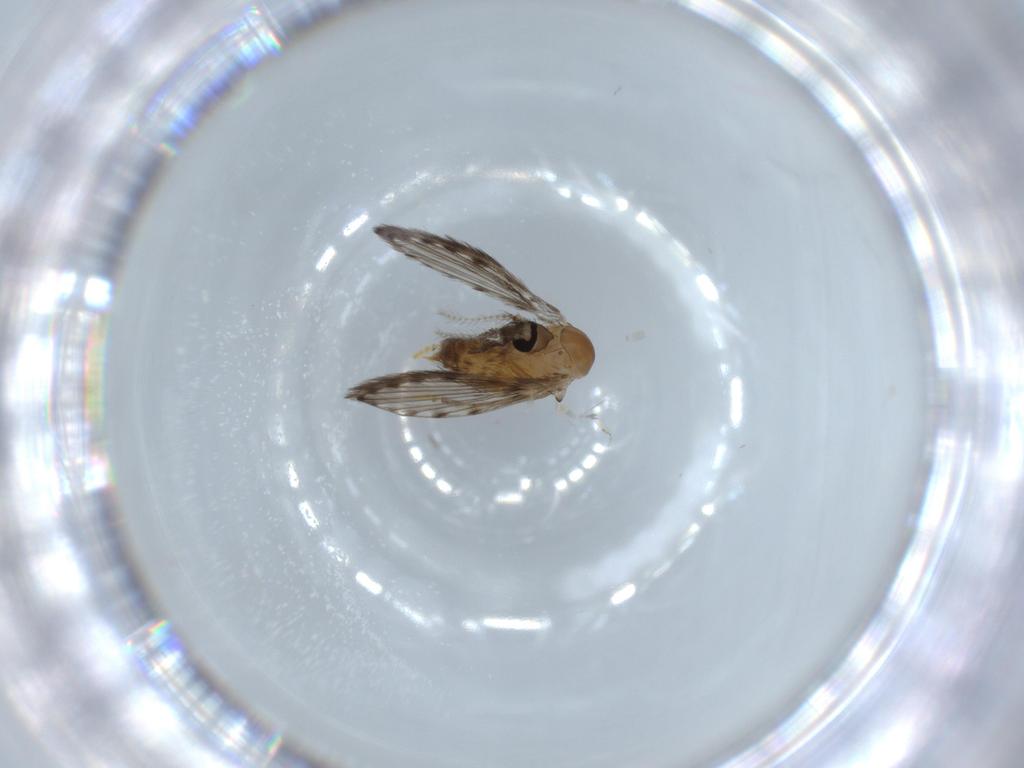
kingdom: Animalia
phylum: Arthropoda
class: Insecta
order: Diptera
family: Psychodidae
